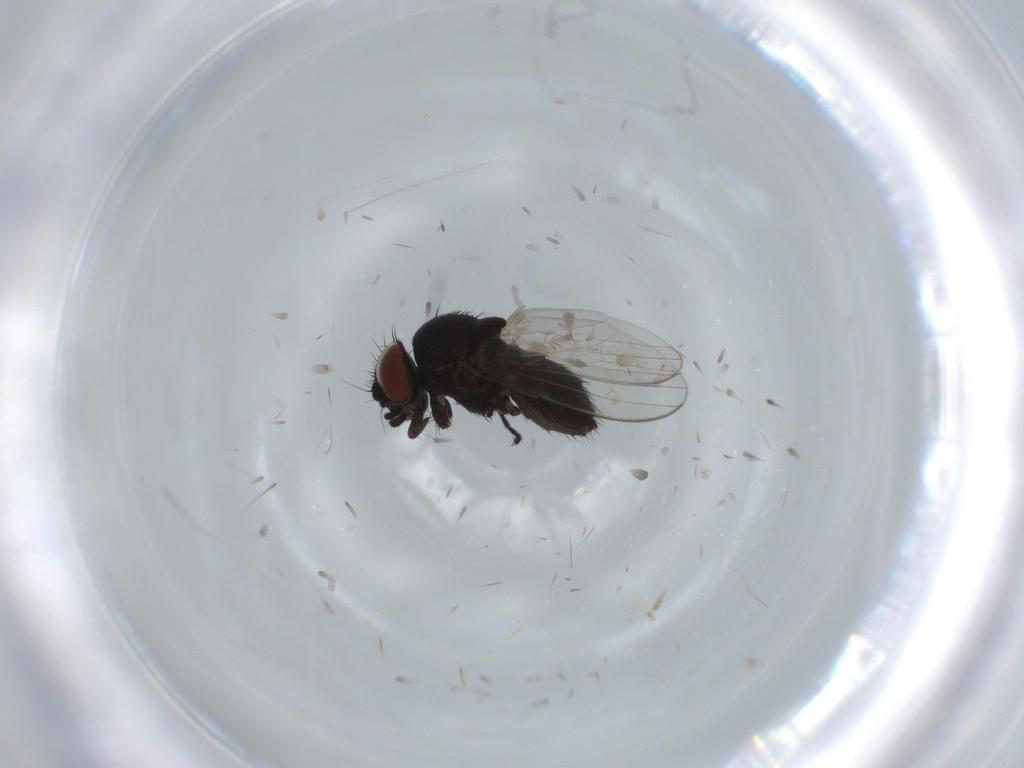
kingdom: Animalia
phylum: Arthropoda
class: Insecta
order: Diptera
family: Milichiidae
